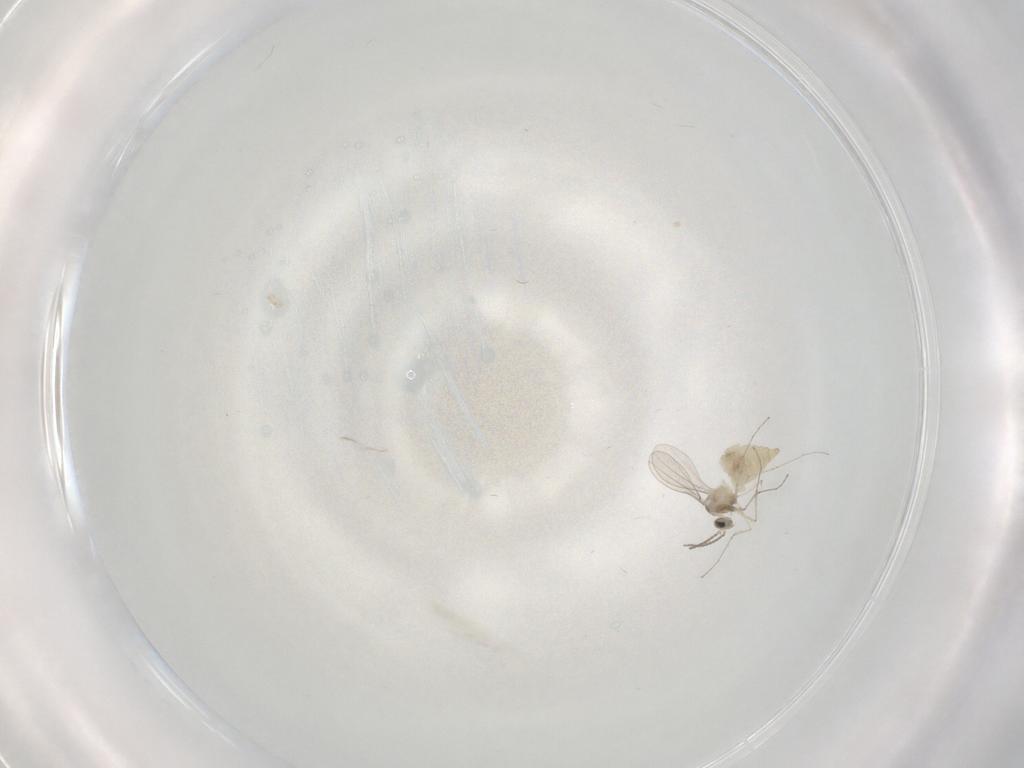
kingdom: Animalia
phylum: Arthropoda
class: Insecta
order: Diptera
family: Cecidomyiidae
